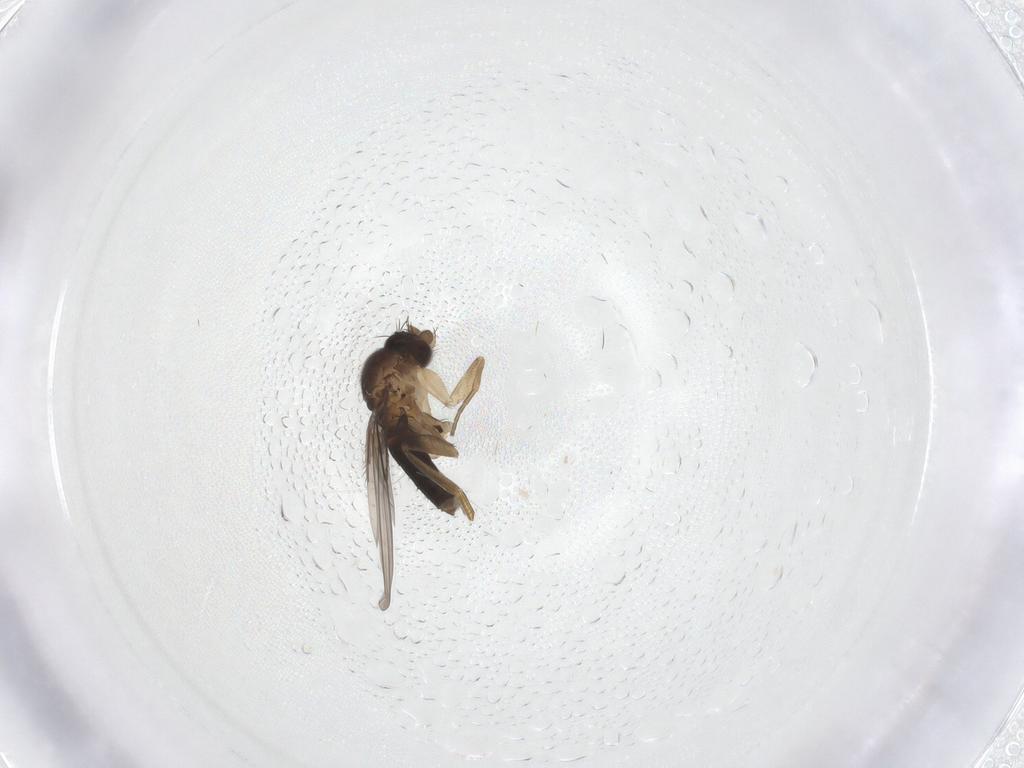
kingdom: Animalia
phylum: Arthropoda
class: Insecta
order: Diptera
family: Phoridae
